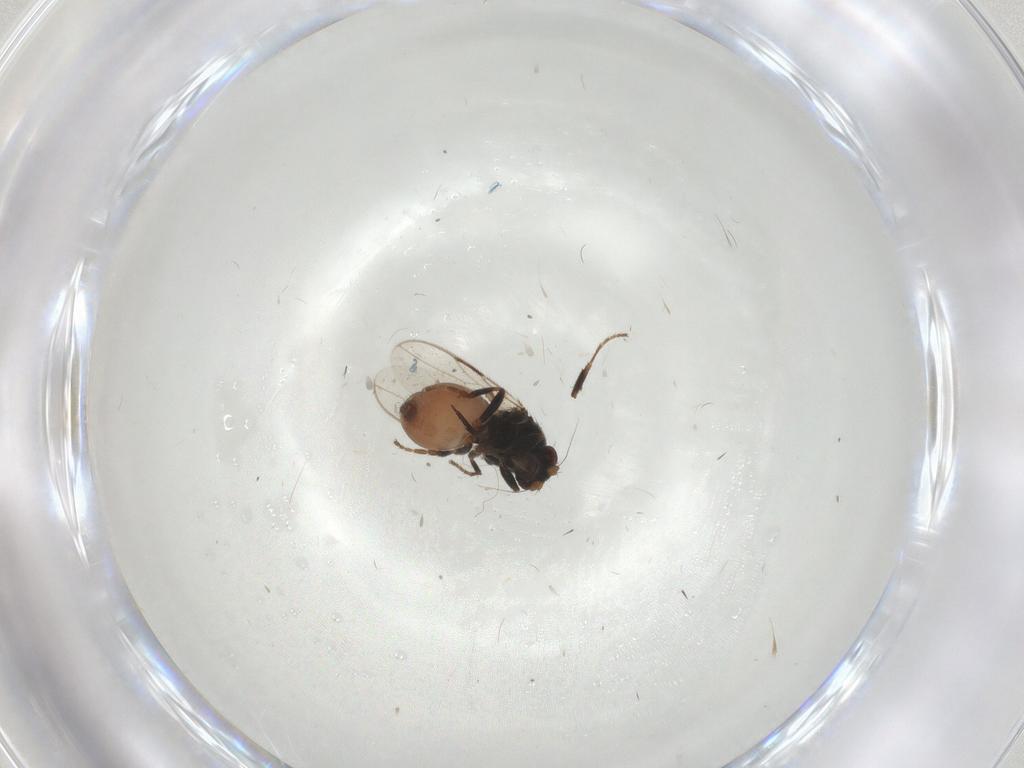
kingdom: Animalia
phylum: Arthropoda
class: Insecta
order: Diptera
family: Sphaeroceridae
